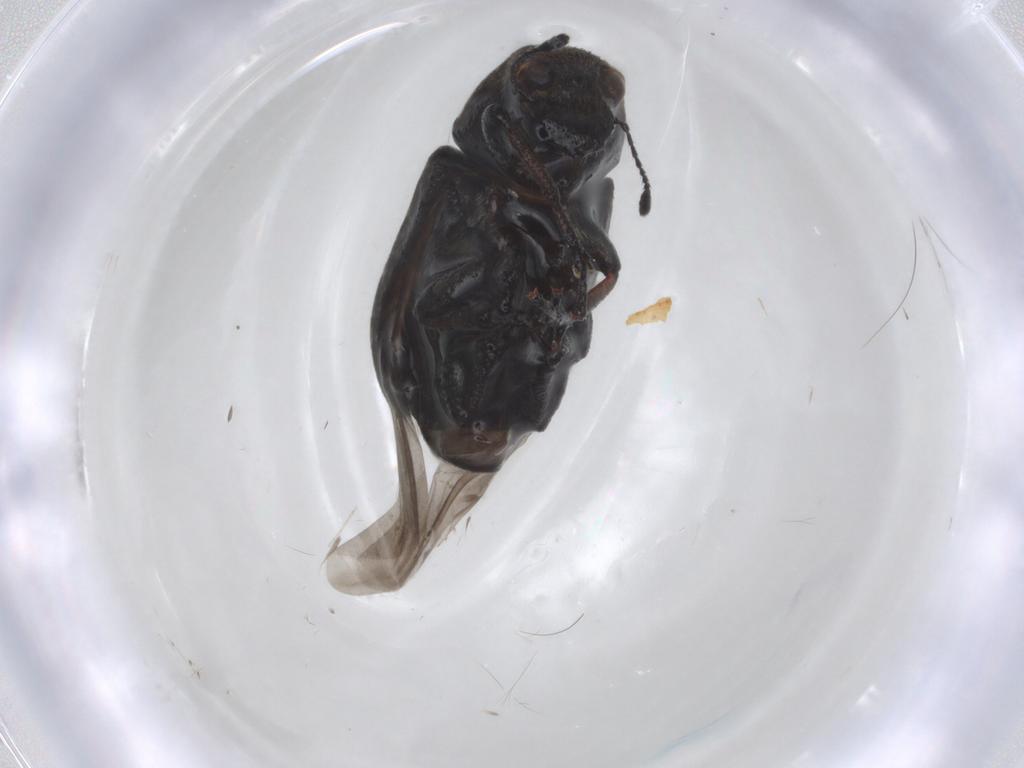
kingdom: Animalia
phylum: Arthropoda
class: Insecta
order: Coleoptera
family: Anthribidae
